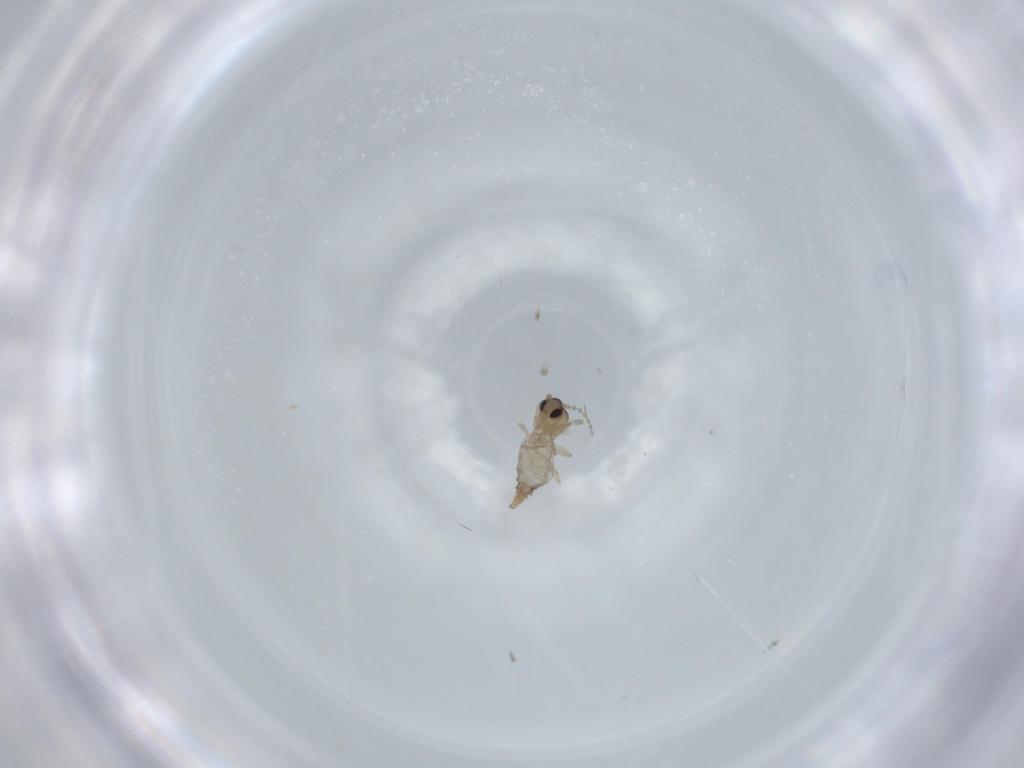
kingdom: Animalia
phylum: Arthropoda
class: Insecta
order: Diptera
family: Cecidomyiidae
